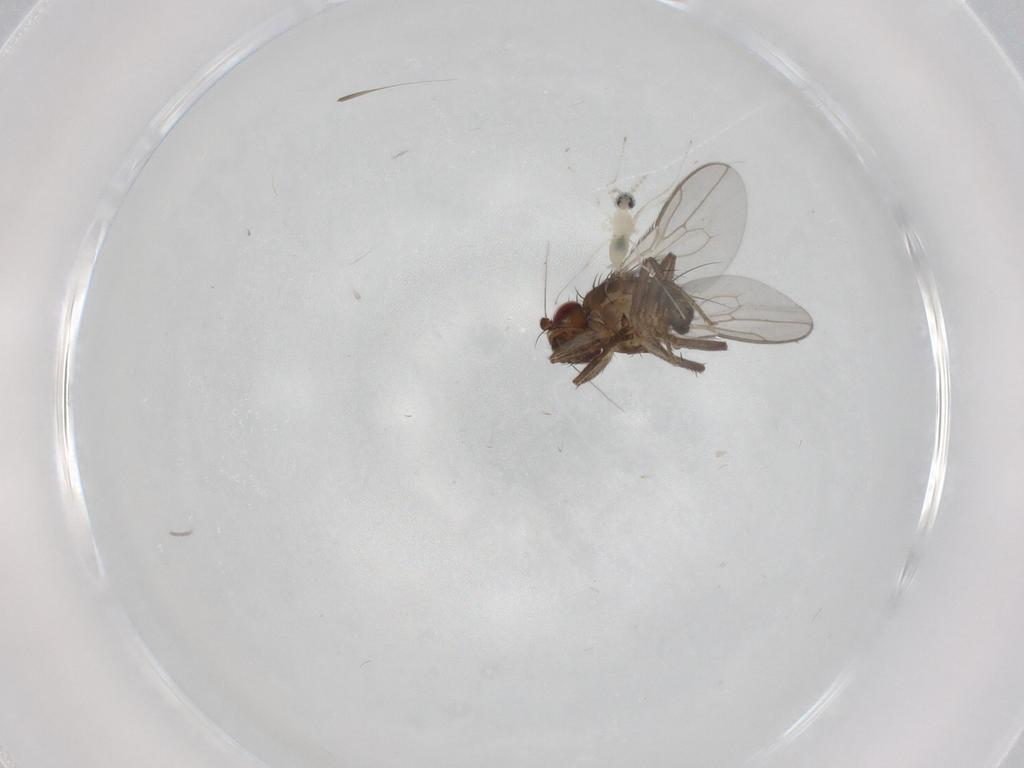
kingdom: Animalia
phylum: Arthropoda
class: Insecta
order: Diptera
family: Cecidomyiidae
